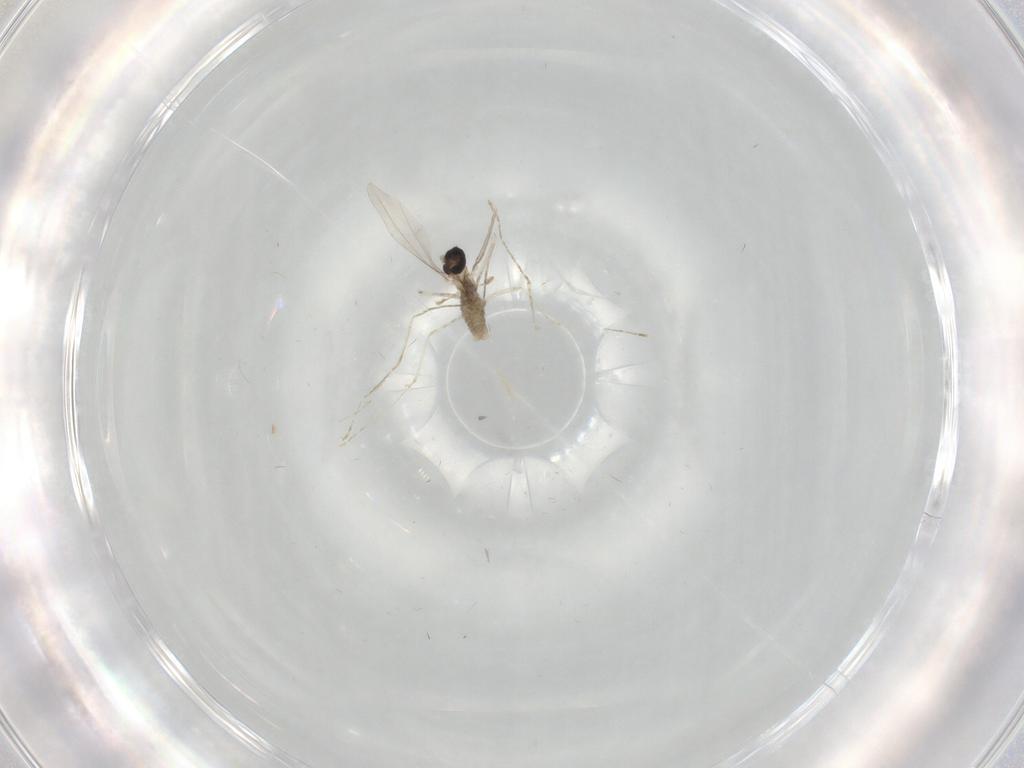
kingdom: Animalia
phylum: Arthropoda
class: Insecta
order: Diptera
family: Cecidomyiidae
